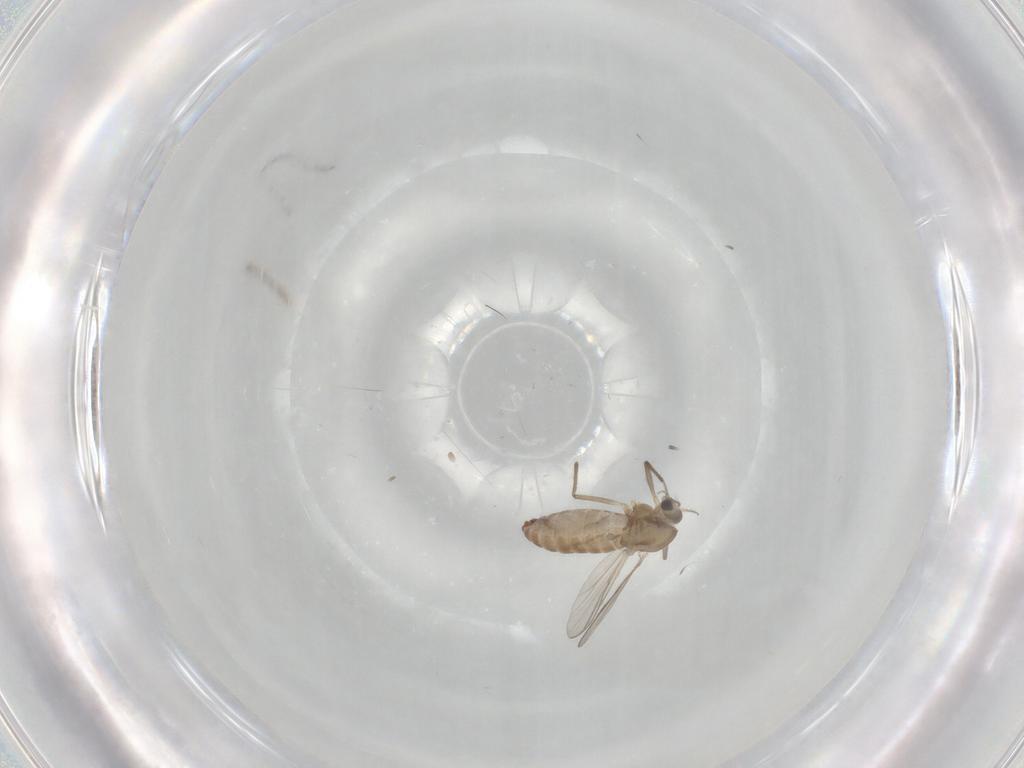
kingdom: Animalia
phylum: Arthropoda
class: Insecta
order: Diptera
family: Chironomidae
